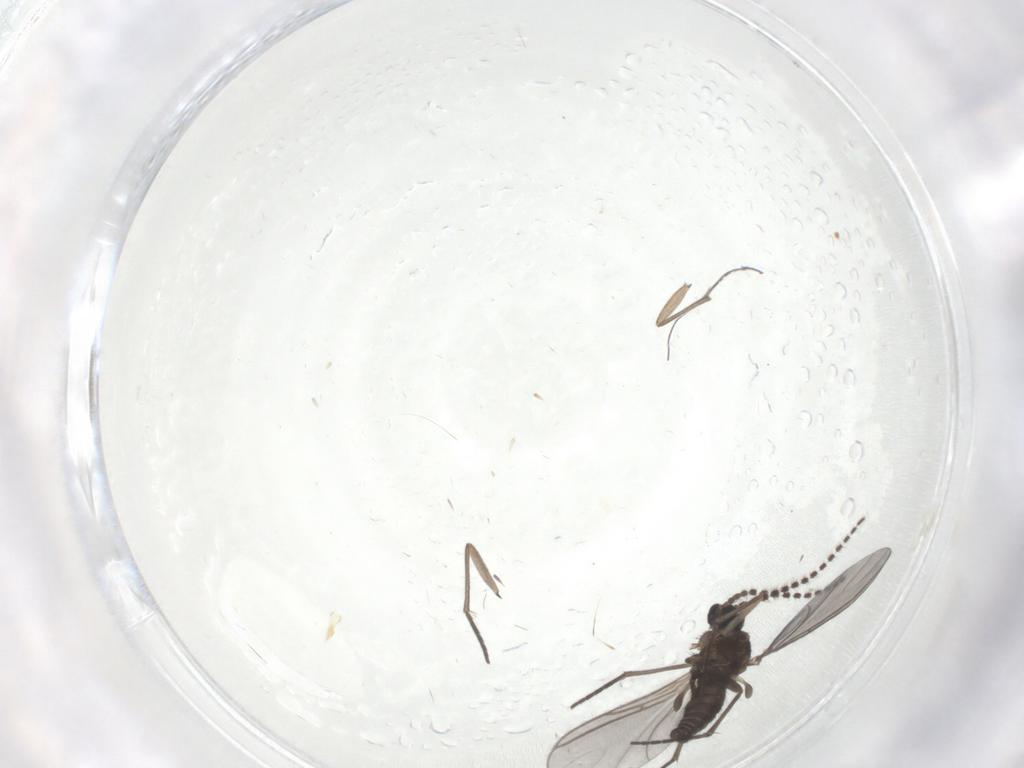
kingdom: Animalia
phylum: Arthropoda
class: Insecta
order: Diptera
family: Sciaridae
